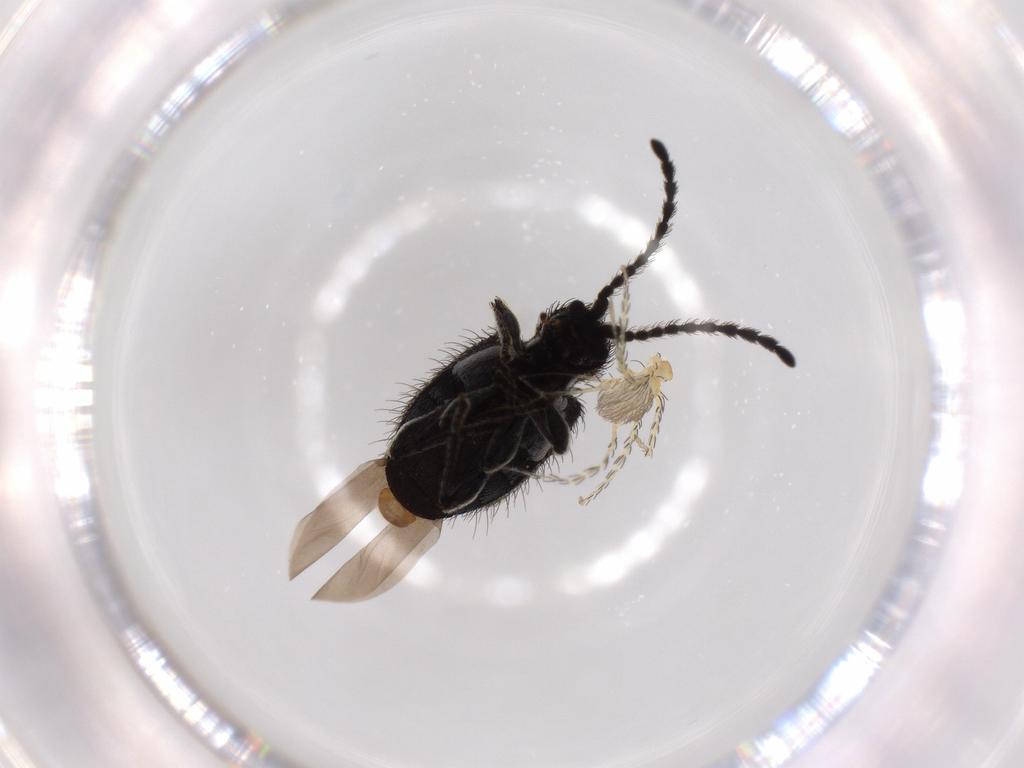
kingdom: Animalia
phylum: Arthropoda
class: Arachnida
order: Trombidiformes
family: Erythraeidae
